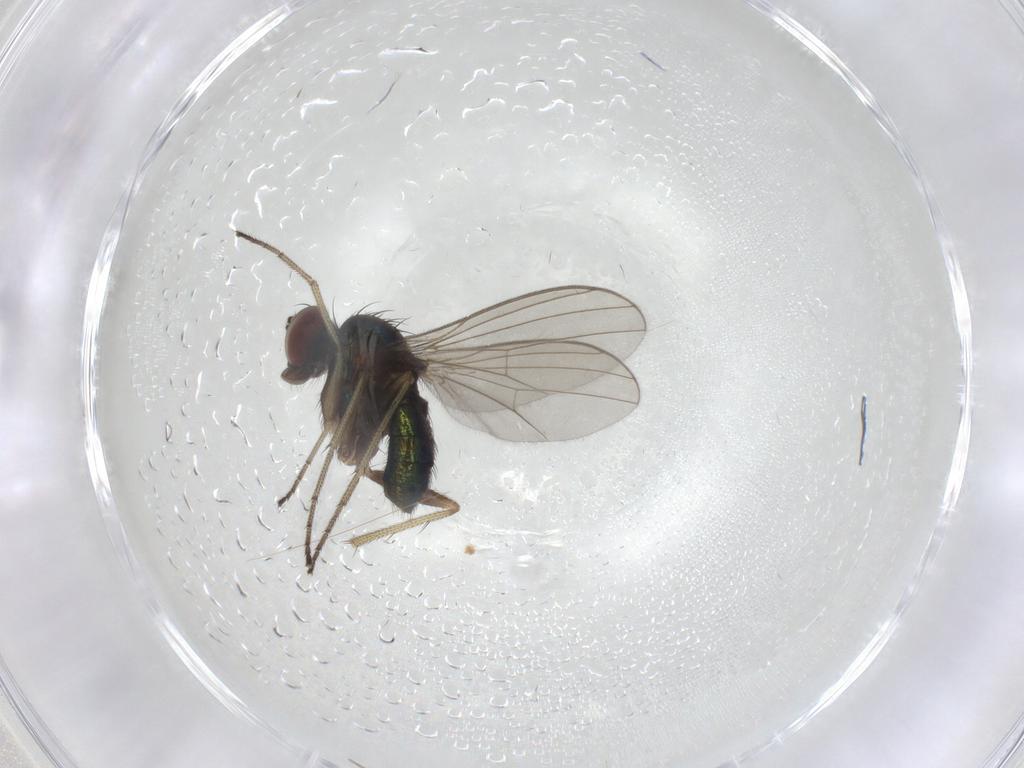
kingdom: Animalia
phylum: Arthropoda
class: Insecta
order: Diptera
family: Dolichopodidae
